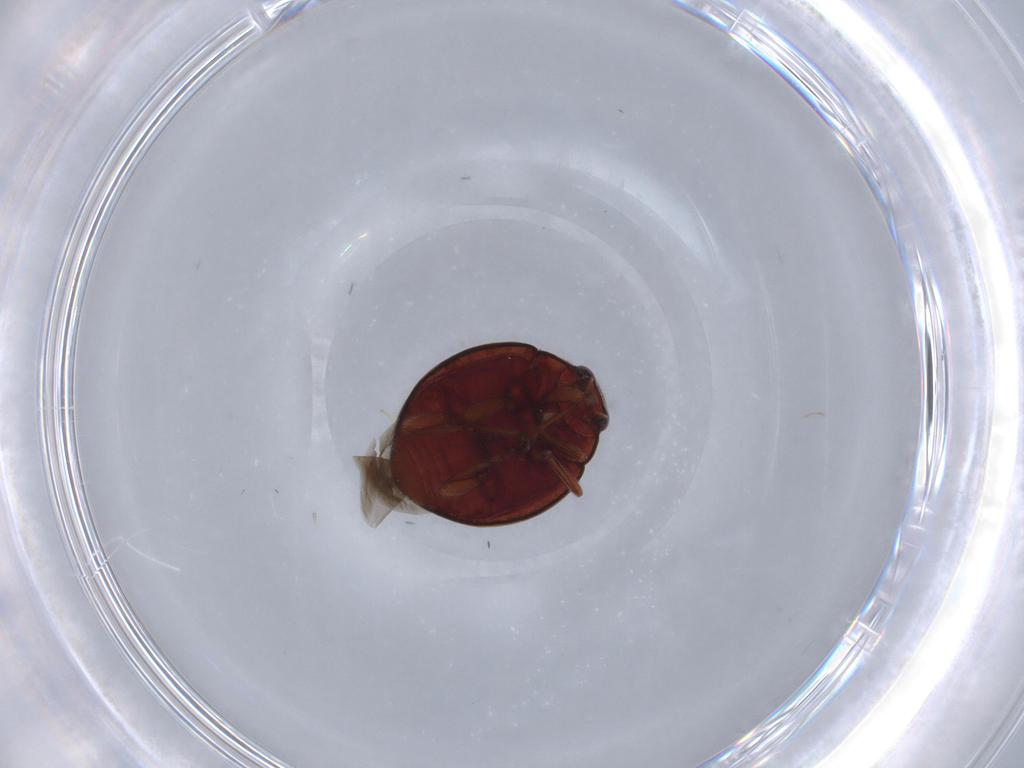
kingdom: Animalia
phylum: Arthropoda
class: Insecta
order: Coleoptera
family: Coccinellidae
